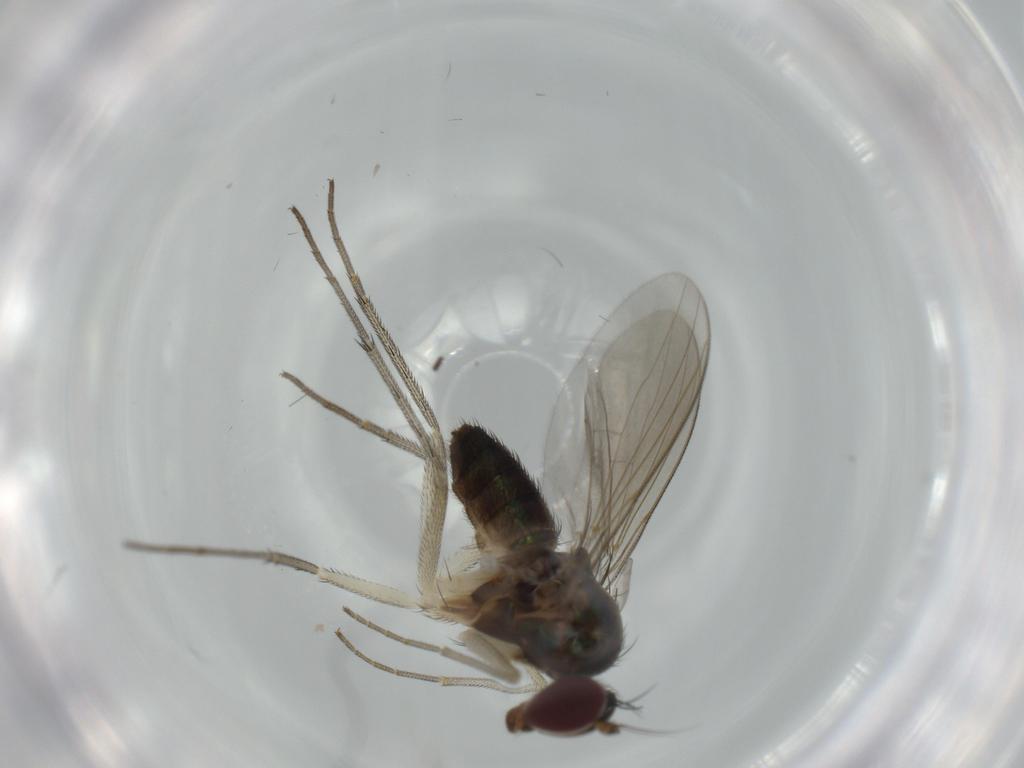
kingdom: Animalia
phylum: Arthropoda
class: Insecta
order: Diptera
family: Dolichopodidae
